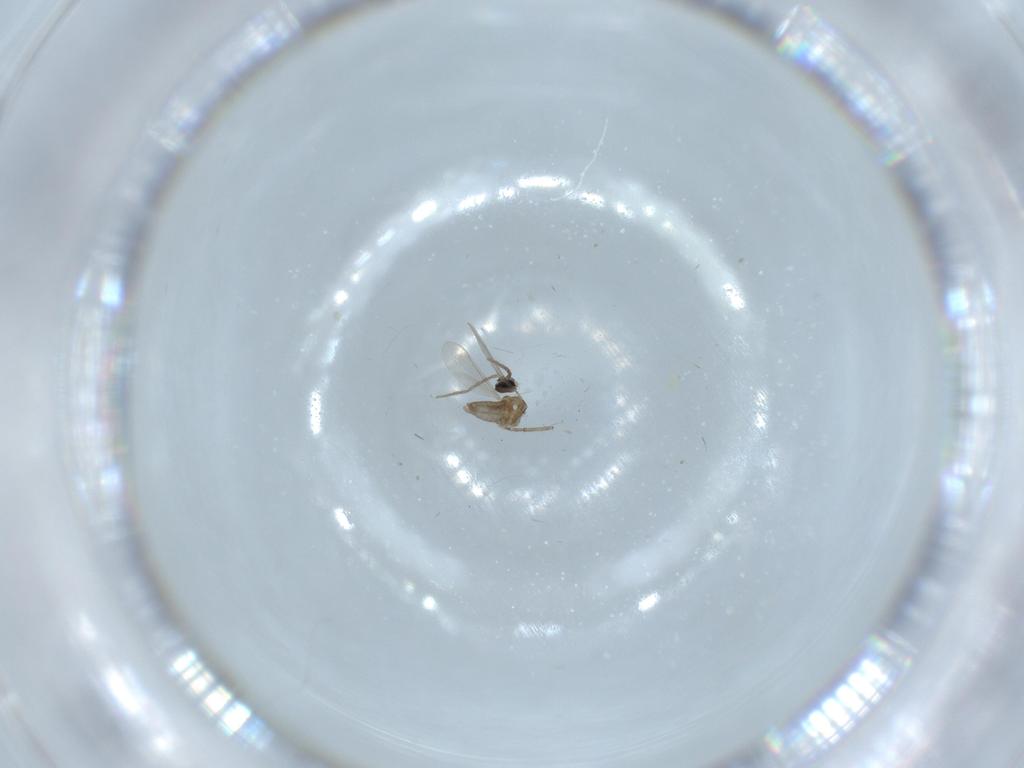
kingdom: Animalia
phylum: Arthropoda
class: Insecta
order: Diptera
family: Cecidomyiidae
